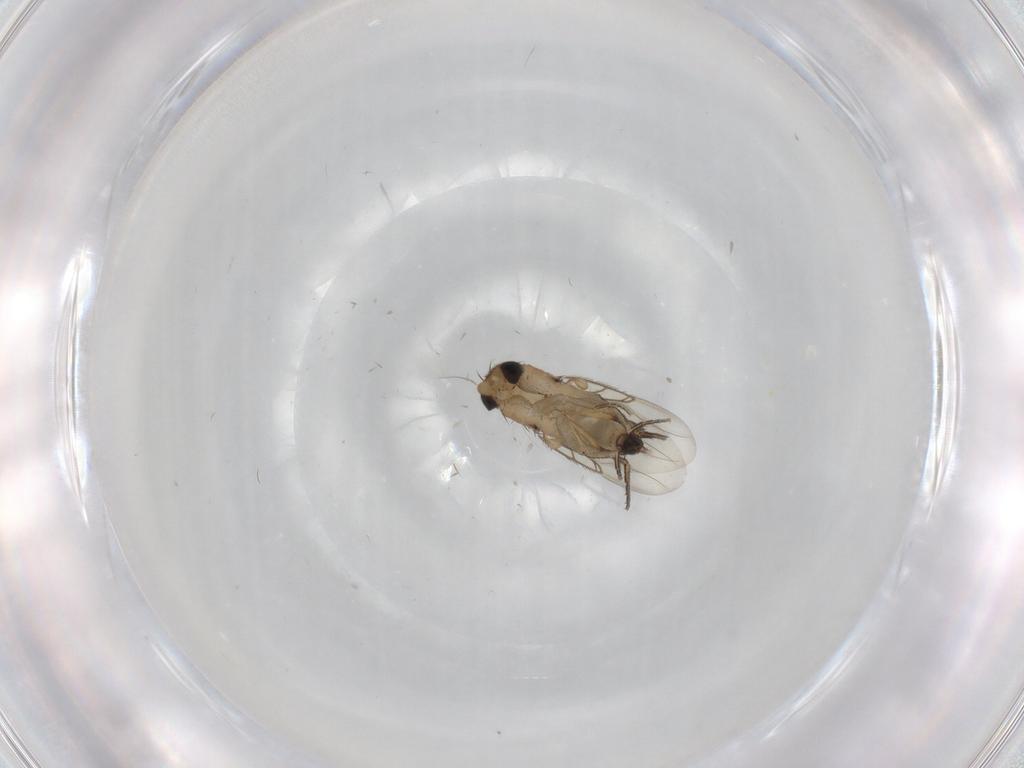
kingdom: Animalia
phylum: Arthropoda
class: Insecta
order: Diptera
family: Phoridae
